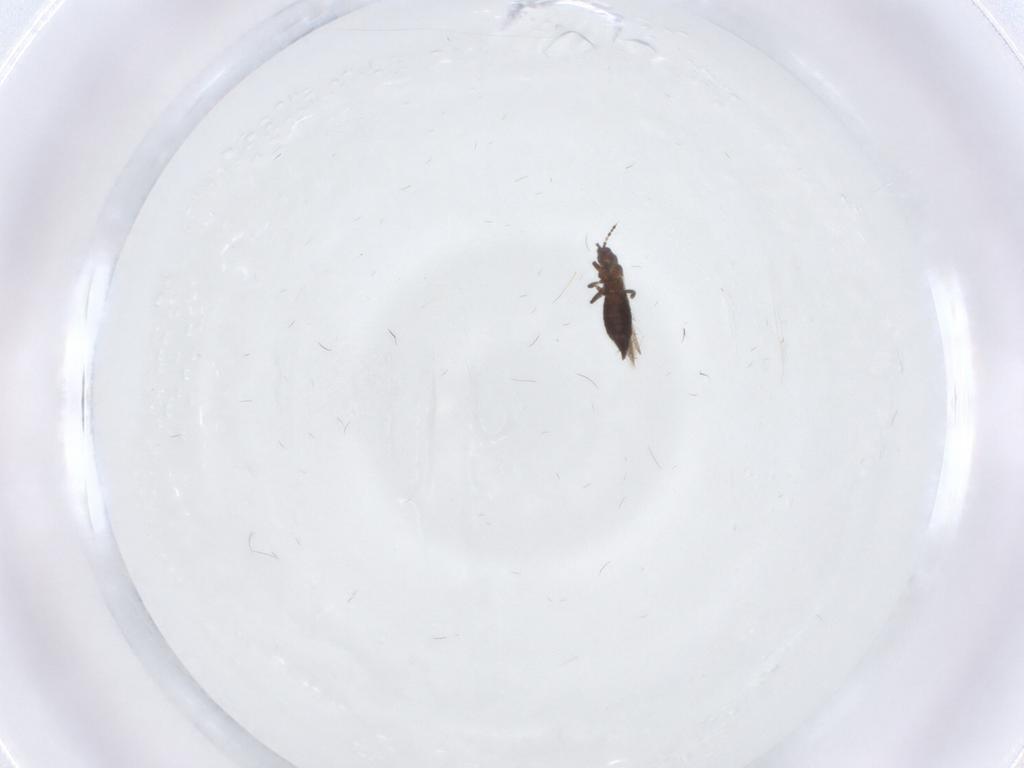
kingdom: Animalia
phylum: Arthropoda
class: Insecta
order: Thysanoptera
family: Thripidae
